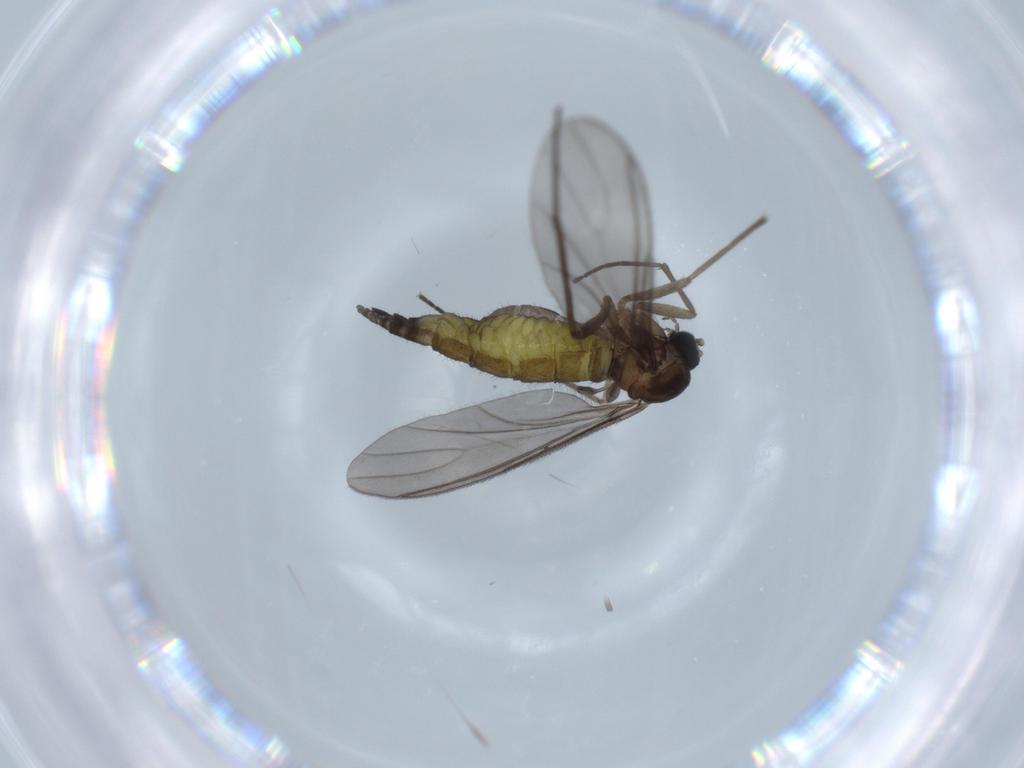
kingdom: Animalia
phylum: Arthropoda
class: Insecta
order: Diptera
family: Sciaridae
